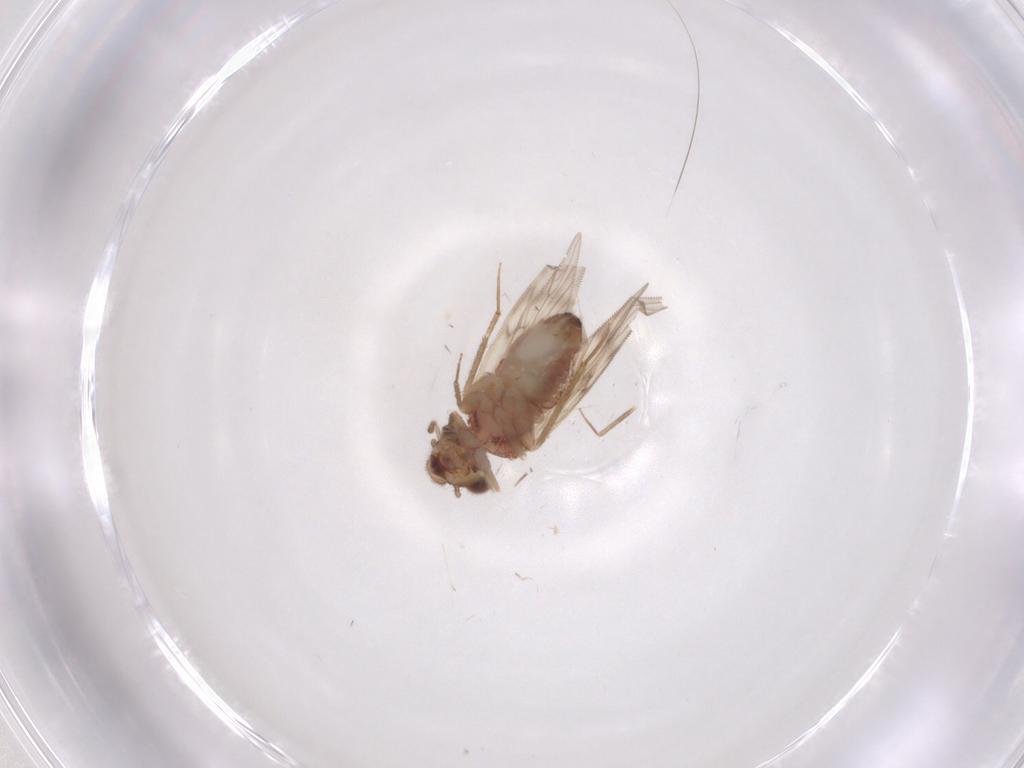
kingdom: Animalia
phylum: Arthropoda
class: Insecta
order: Psocodea
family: Lepidopsocidae
